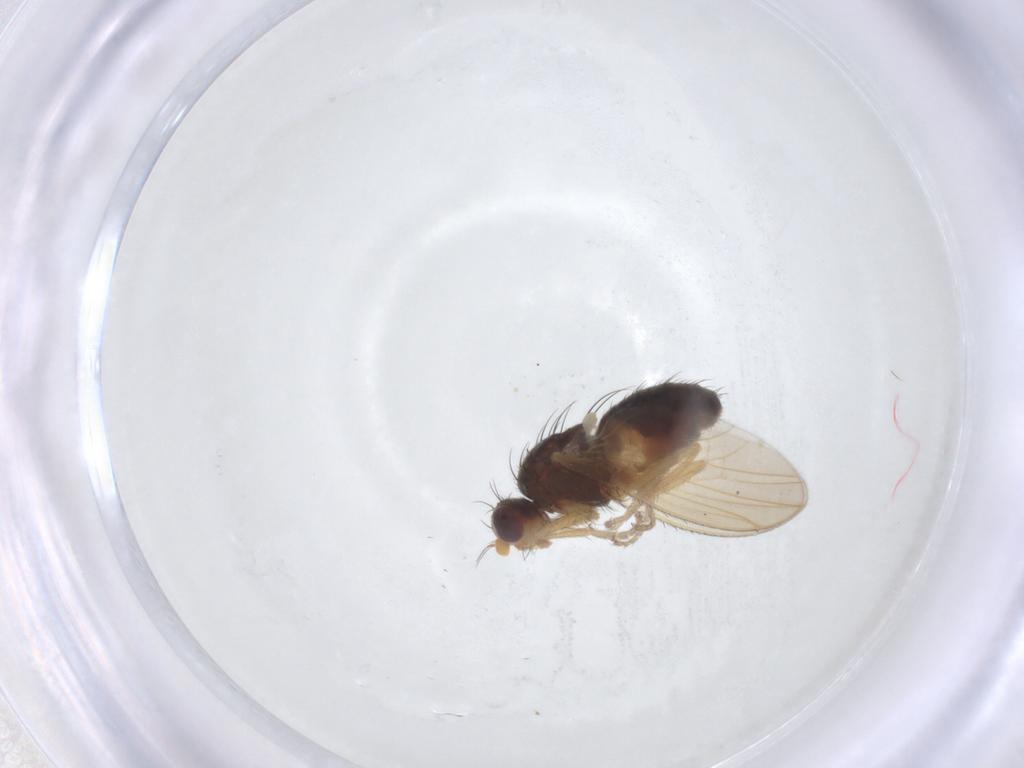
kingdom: Animalia
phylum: Arthropoda
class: Insecta
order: Diptera
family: Heleomyzidae
